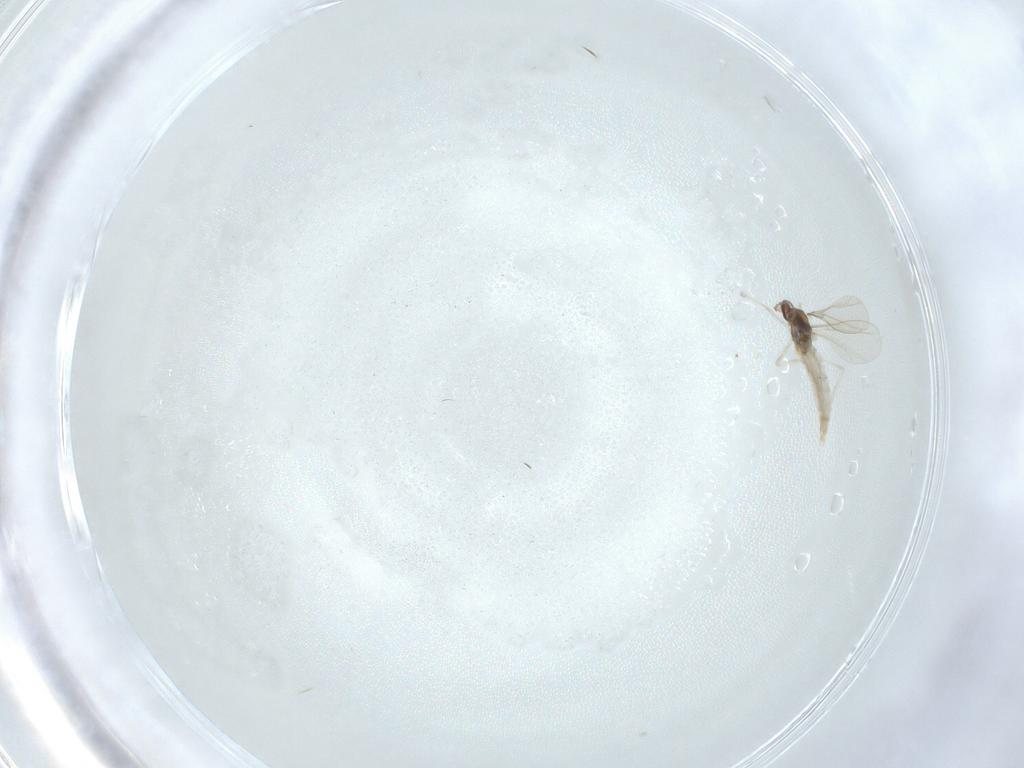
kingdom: Animalia
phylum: Arthropoda
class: Insecta
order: Diptera
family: Cecidomyiidae
